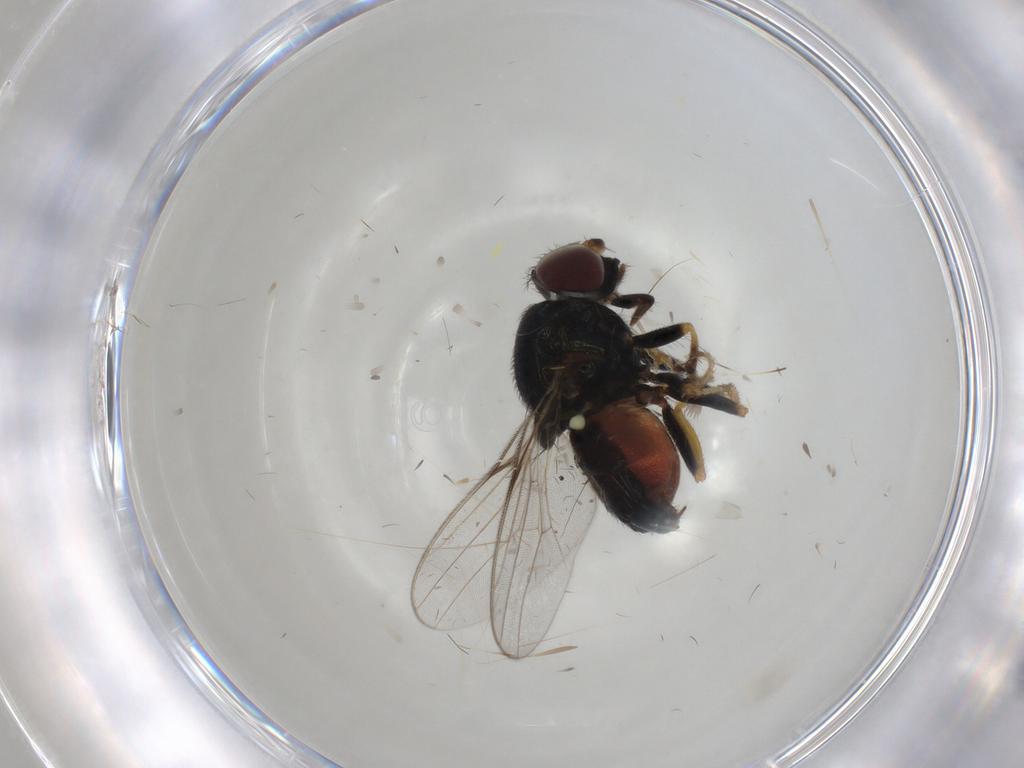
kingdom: Animalia
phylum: Arthropoda
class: Insecta
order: Diptera
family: Chloropidae
